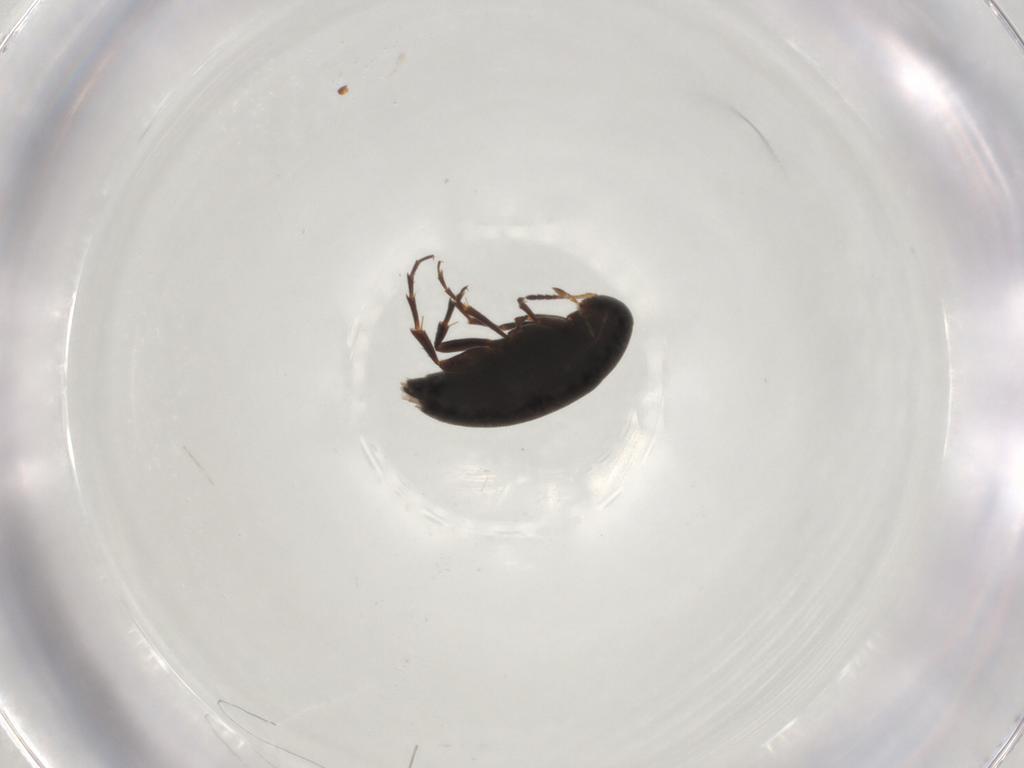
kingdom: Animalia
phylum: Arthropoda
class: Insecta
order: Coleoptera
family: Scraptiidae
